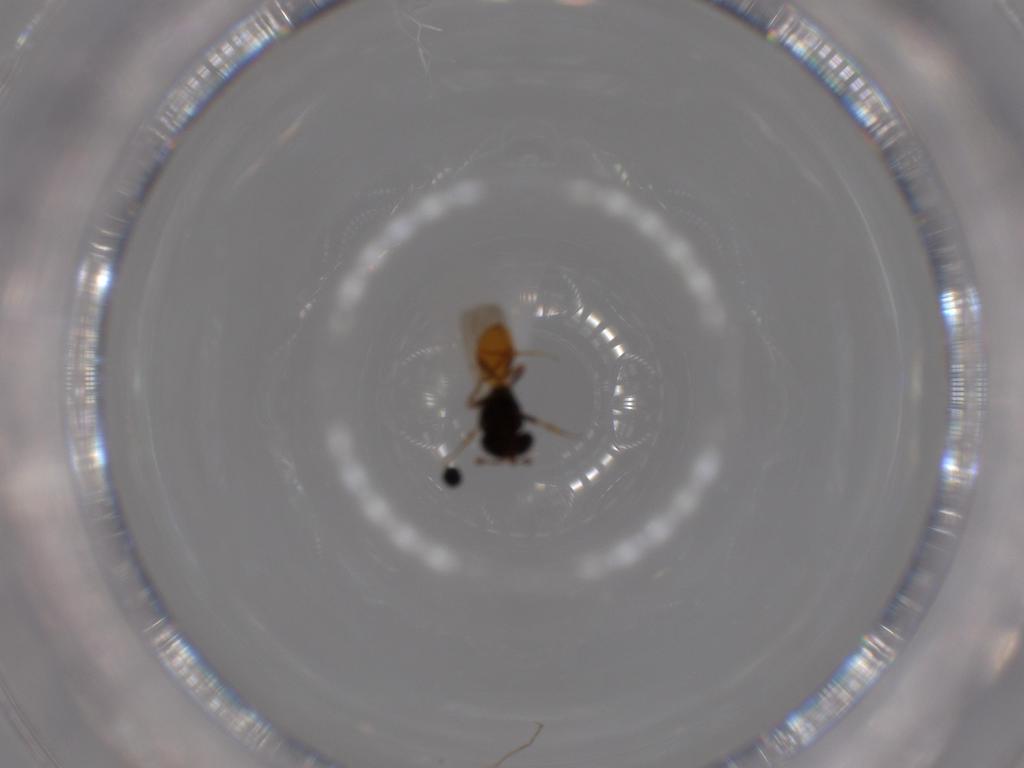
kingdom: Animalia
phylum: Arthropoda
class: Insecta
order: Hymenoptera
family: Scelionidae
